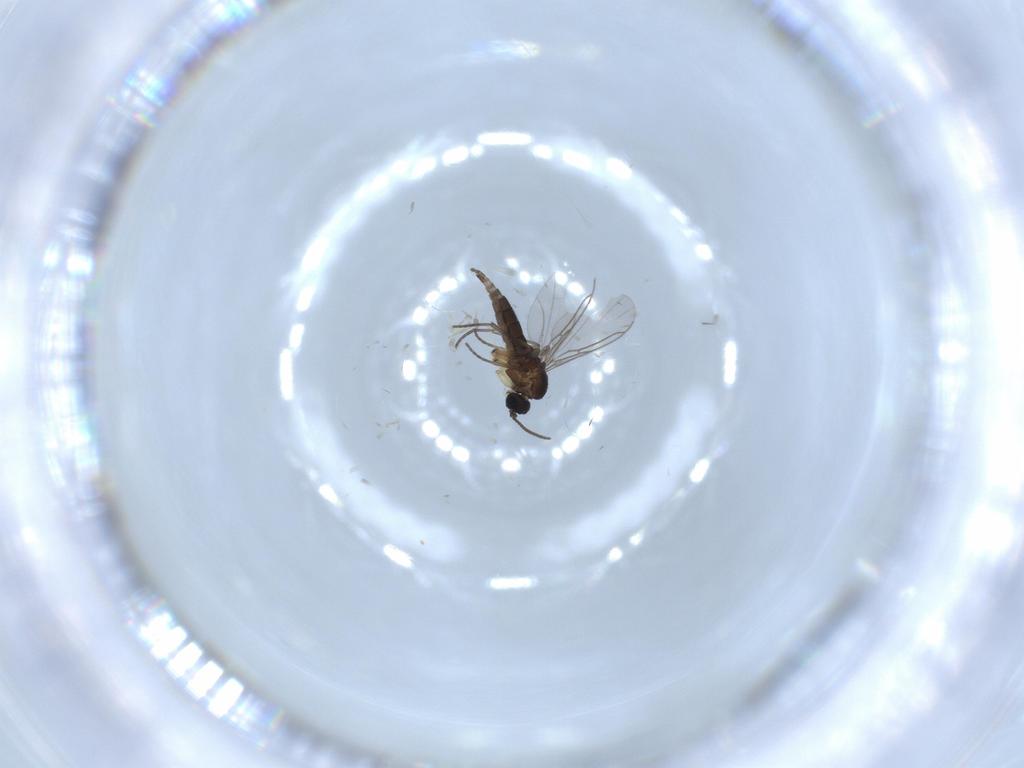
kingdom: Animalia
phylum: Arthropoda
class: Insecta
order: Diptera
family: Sciaridae
